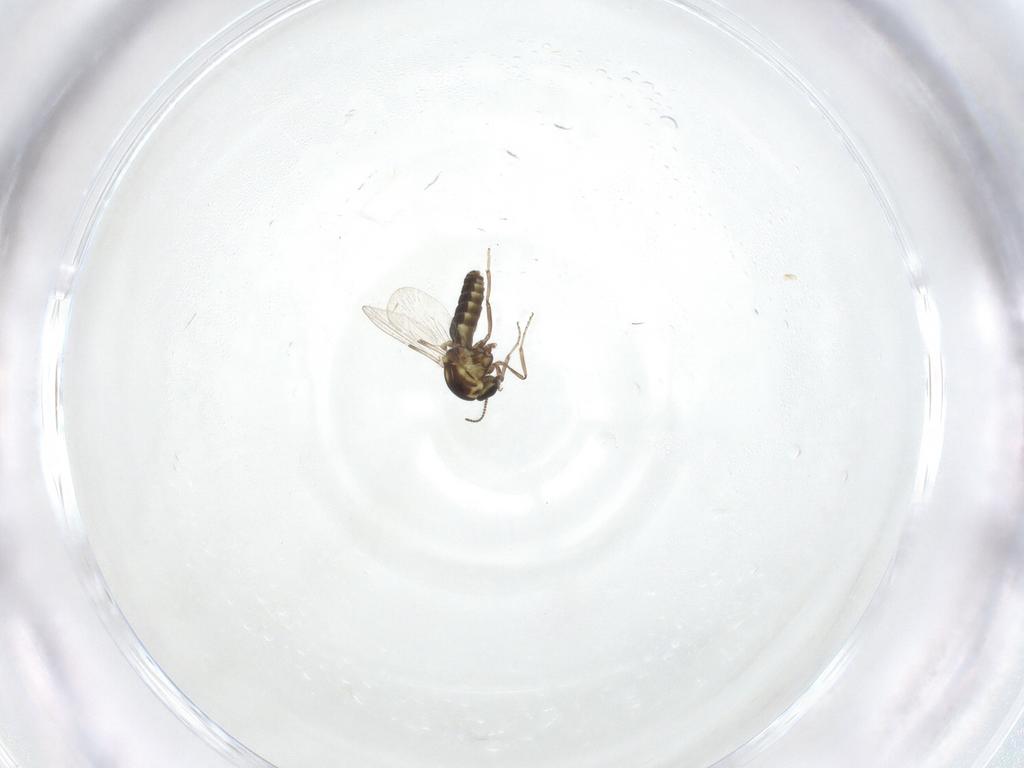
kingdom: Animalia
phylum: Arthropoda
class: Insecta
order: Diptera
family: Ceratopogonidae
